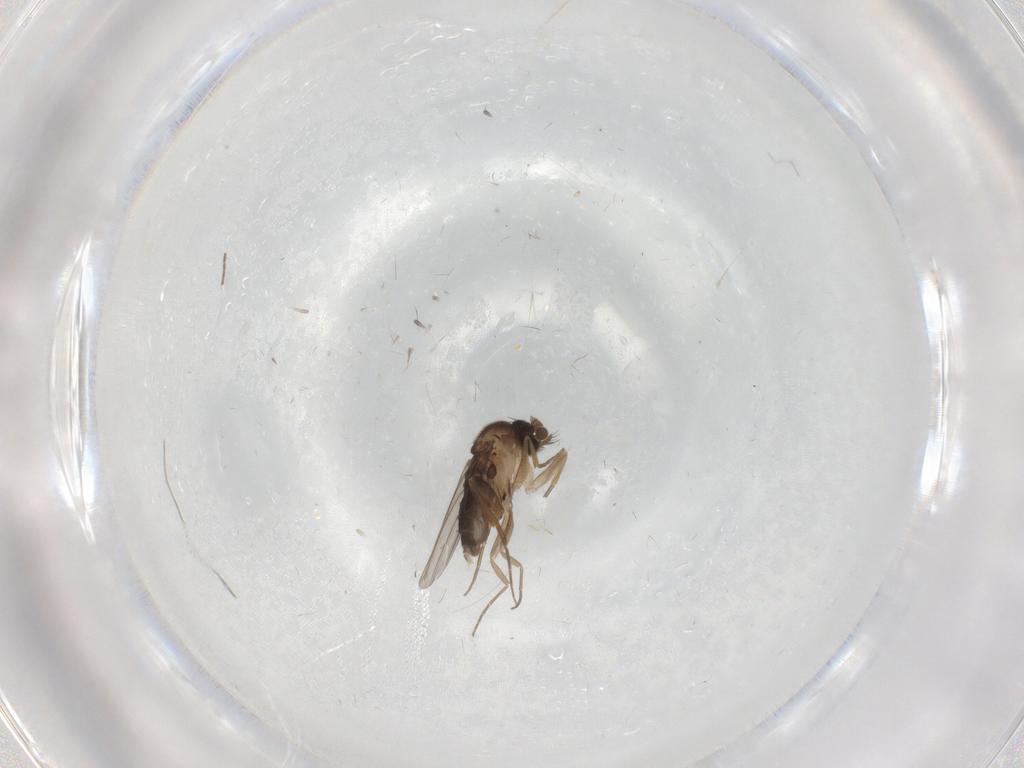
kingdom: Animalia
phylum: Arthropoda
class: Insecta
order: Diptera
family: Phoridae
